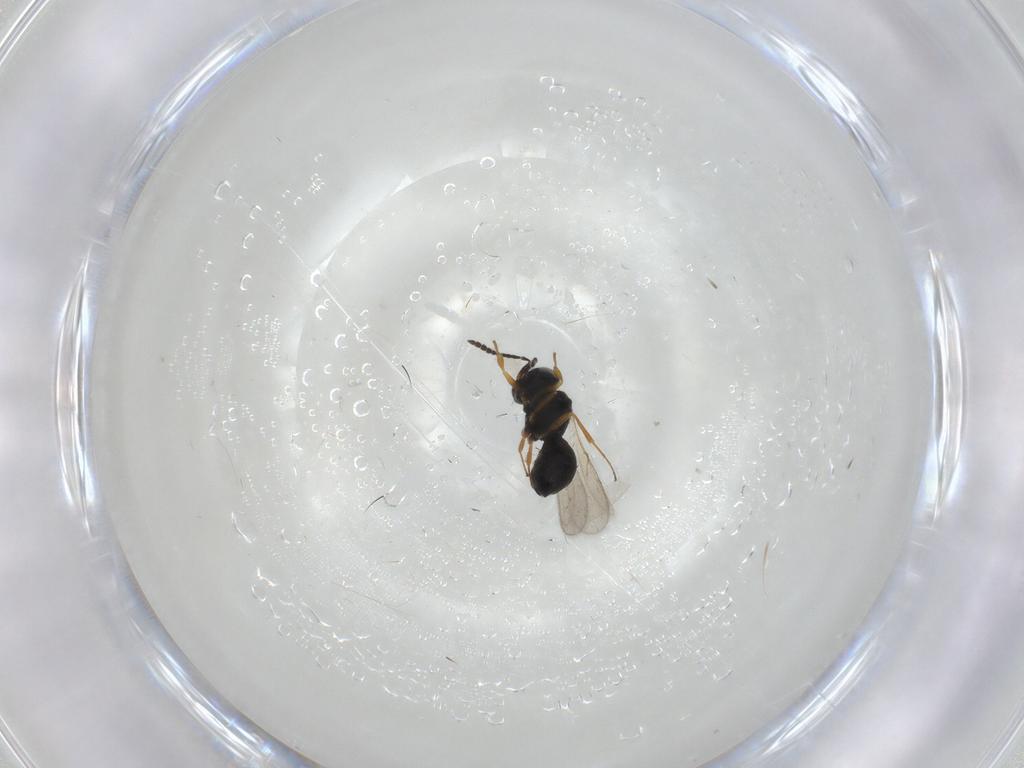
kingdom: Animalia
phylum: Arthropoda
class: Insecta
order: Hymenoptera
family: Scelionidae
